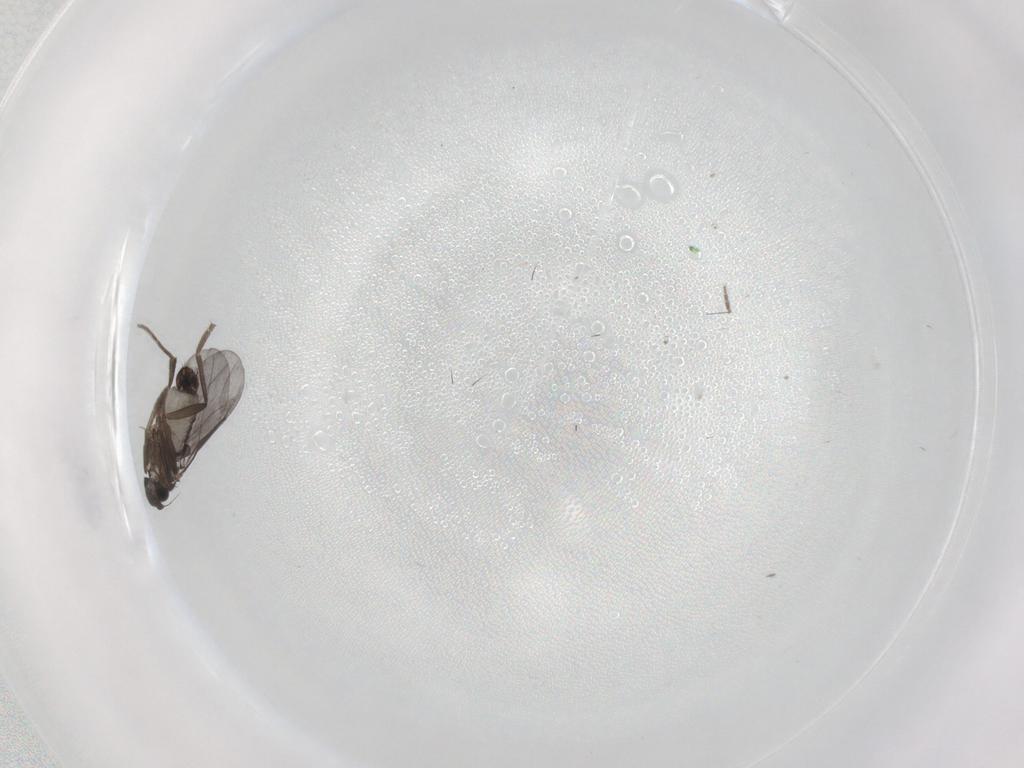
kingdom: Animalia
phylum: Arthropoda
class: Insecta
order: Diptera
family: Phoridae
